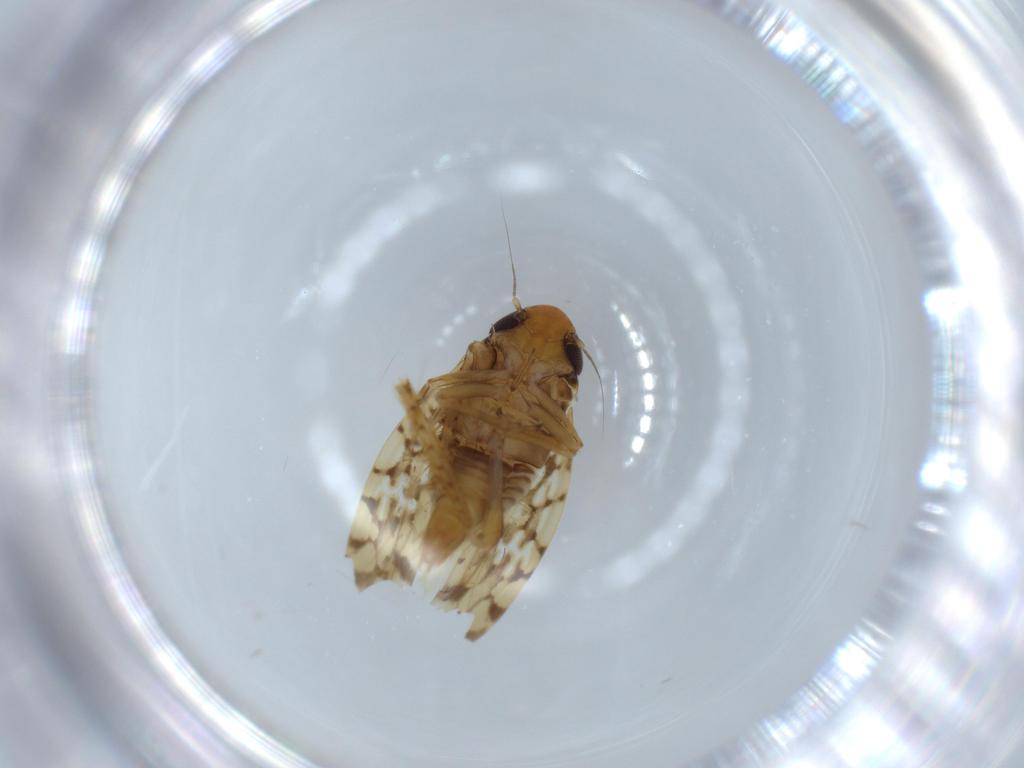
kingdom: Animalia
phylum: Arthropoda
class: Insecta
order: Hemiptera
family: Cicadellidae
